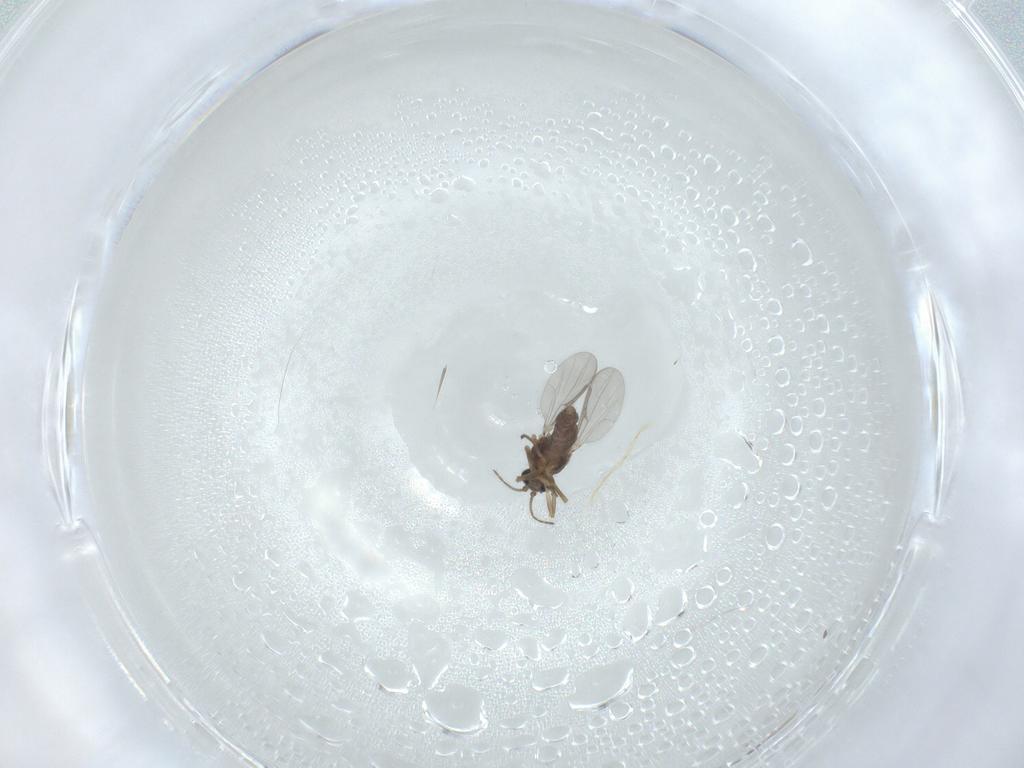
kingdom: Animalia
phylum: Arthropoda
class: Insecta
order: Diptera
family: Ceratopogonidae
